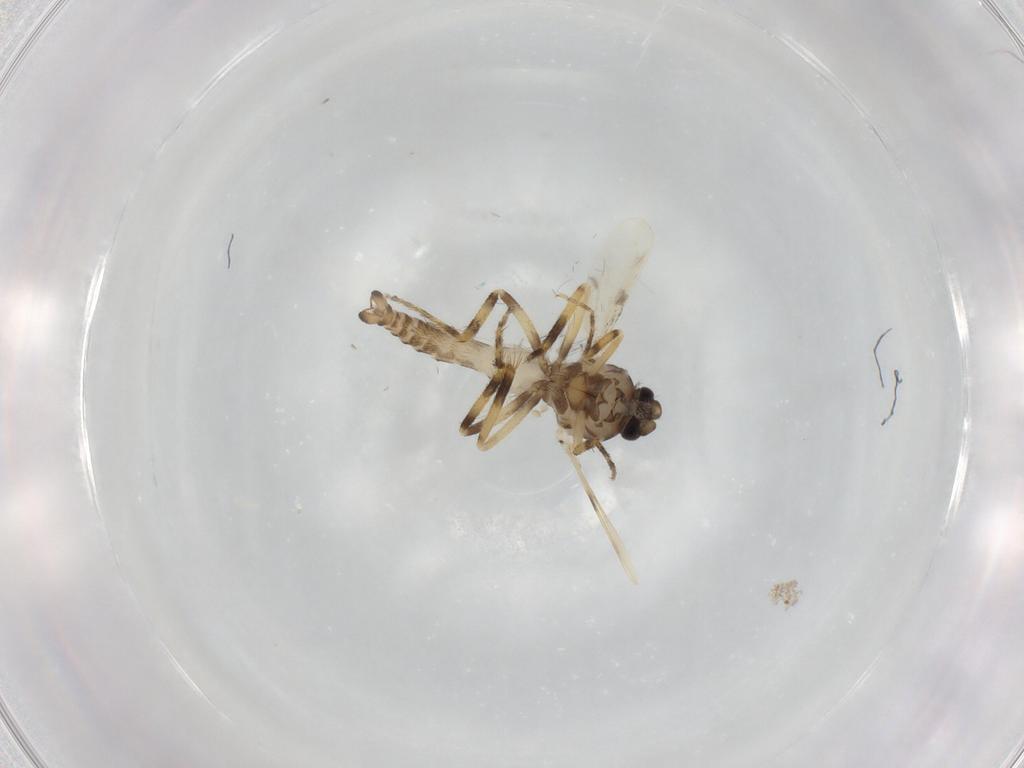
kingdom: Animalia
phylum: Arthropoda
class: Insecta
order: Diptera
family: Ceratopogonidae
